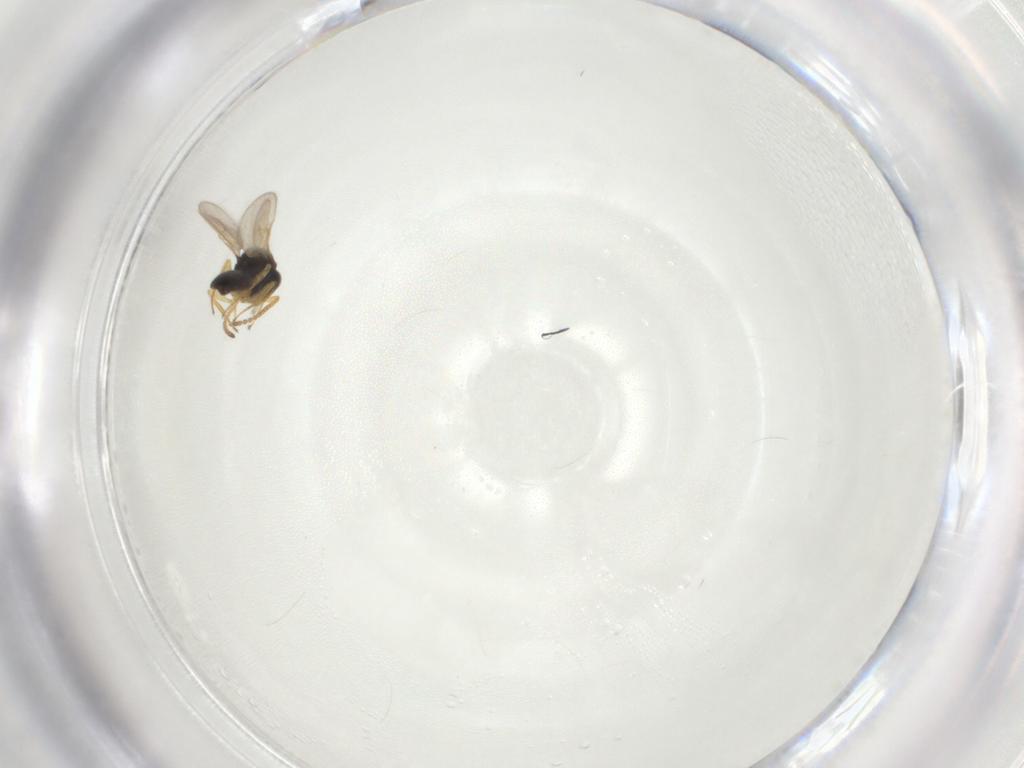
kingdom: Animalia
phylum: Arthropoda
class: Insecta
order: Hymenoptera
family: Scelionidae
